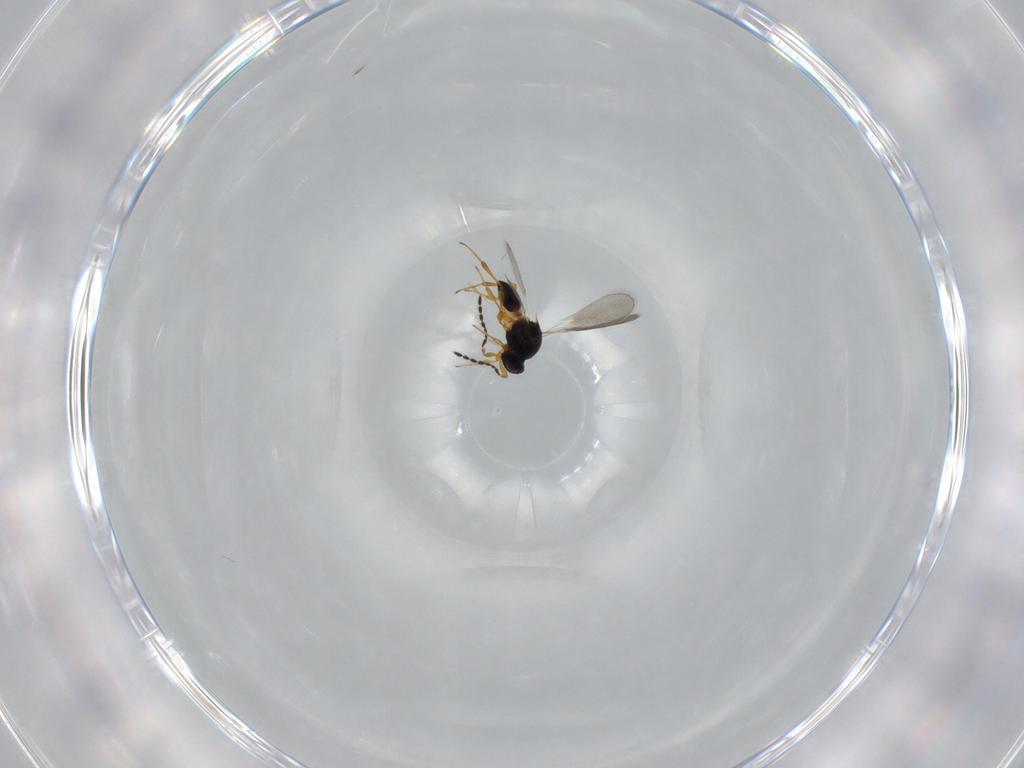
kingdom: Animalia
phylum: Arthropoda
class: Insecta
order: Hymenoptera
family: Platygastridae
